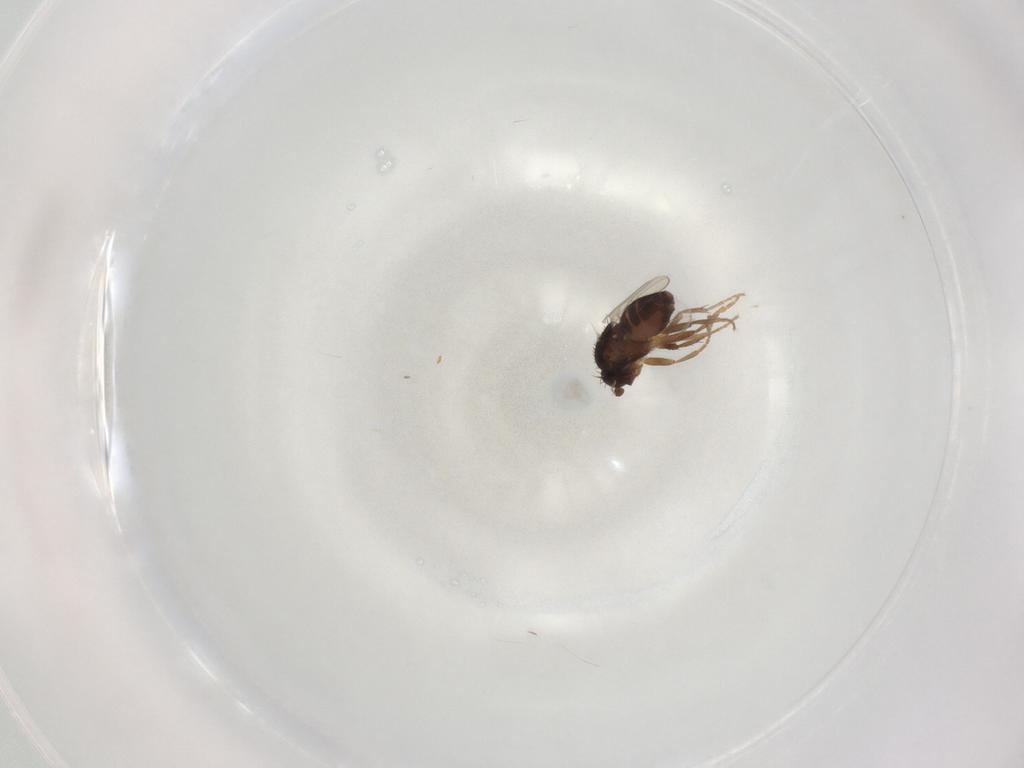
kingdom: Animalia
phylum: Arthropoda
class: Insecta
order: Diptera
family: Sphaeroceridae
